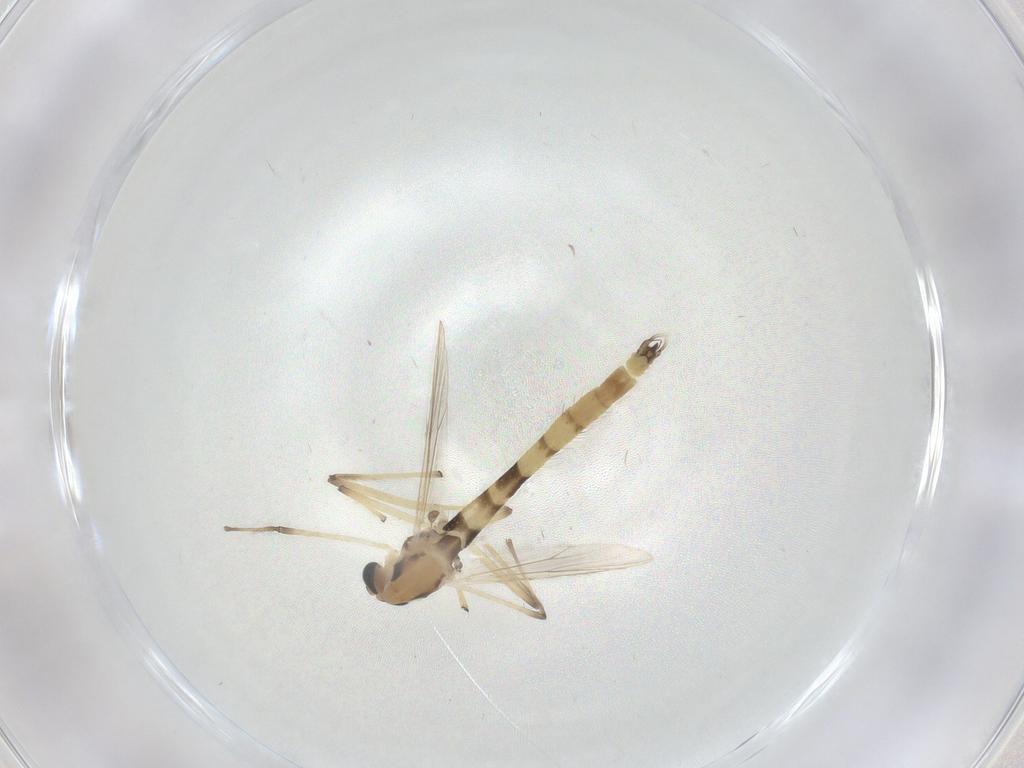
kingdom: Animalia
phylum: Arthropoda
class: Insecta
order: Diptera
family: Chironomidae
